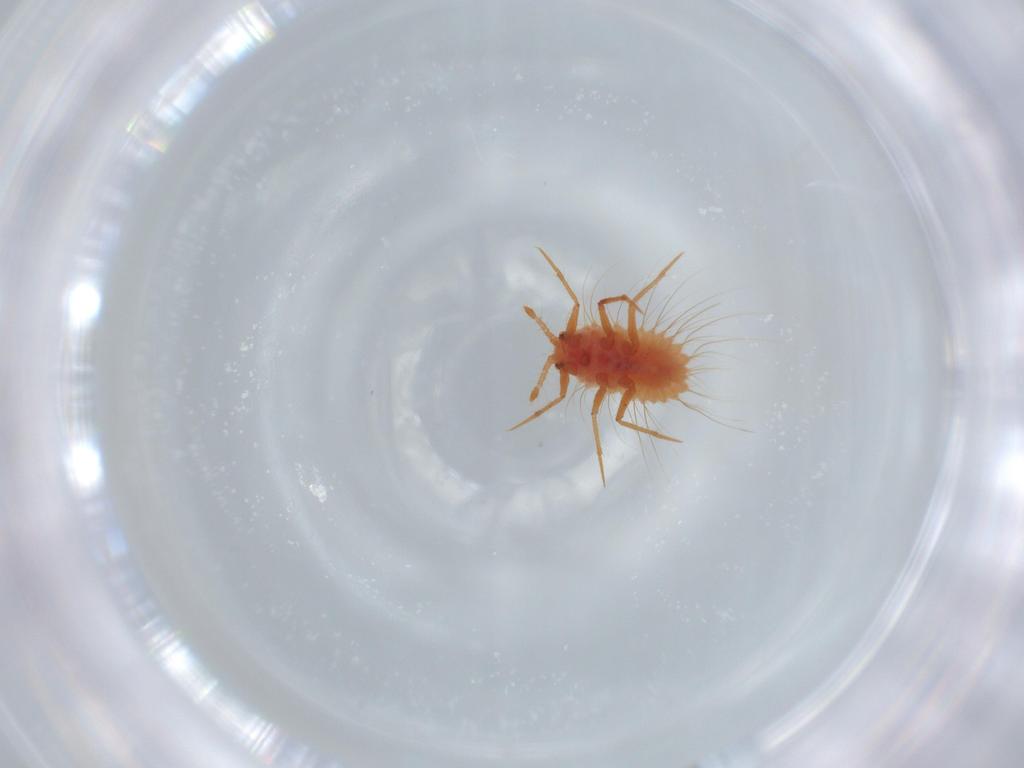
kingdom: Animalia
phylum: Arthropoda
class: Insecta
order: Hemiptera
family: Monophlebidae
